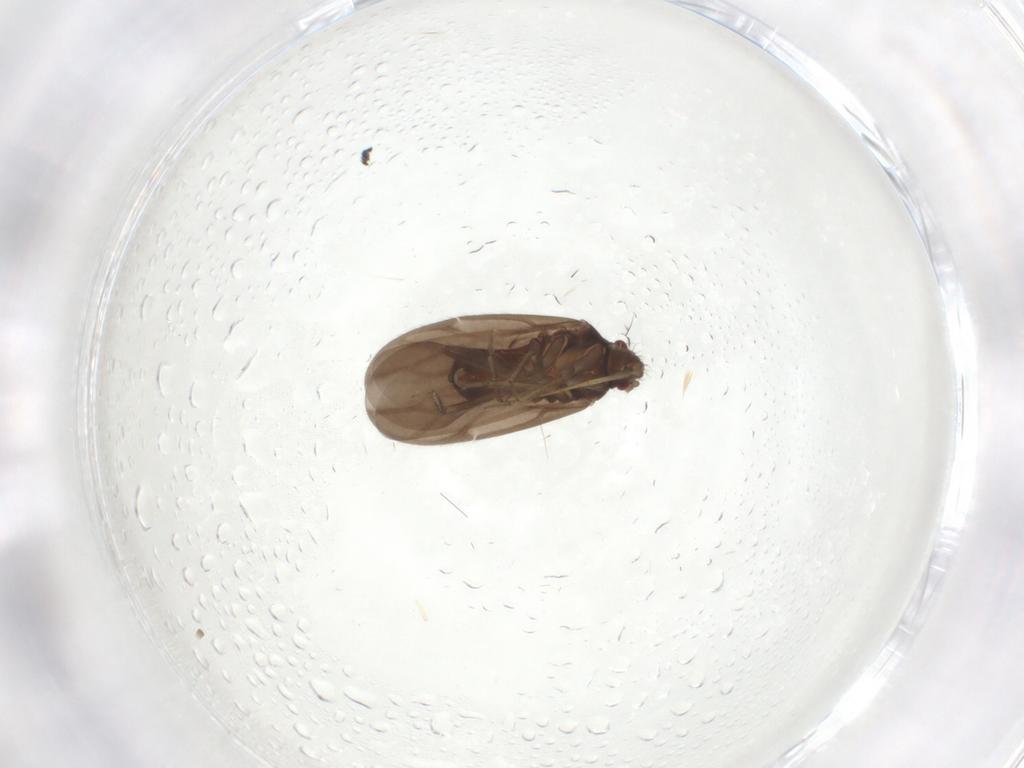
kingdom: Animalia
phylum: Arthropoda
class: Insecta
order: Hemiptera
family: Ceratocombidae
